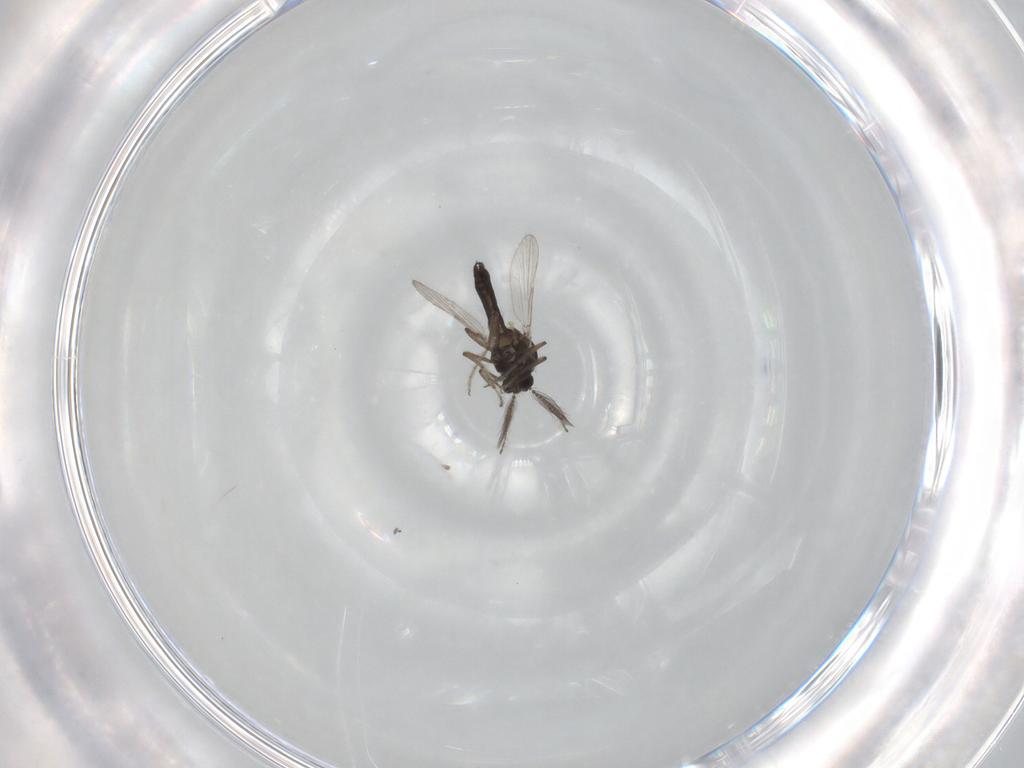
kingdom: Animalia
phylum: Arthropoda
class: Insecta
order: Diptera
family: Ceratopogonidae
